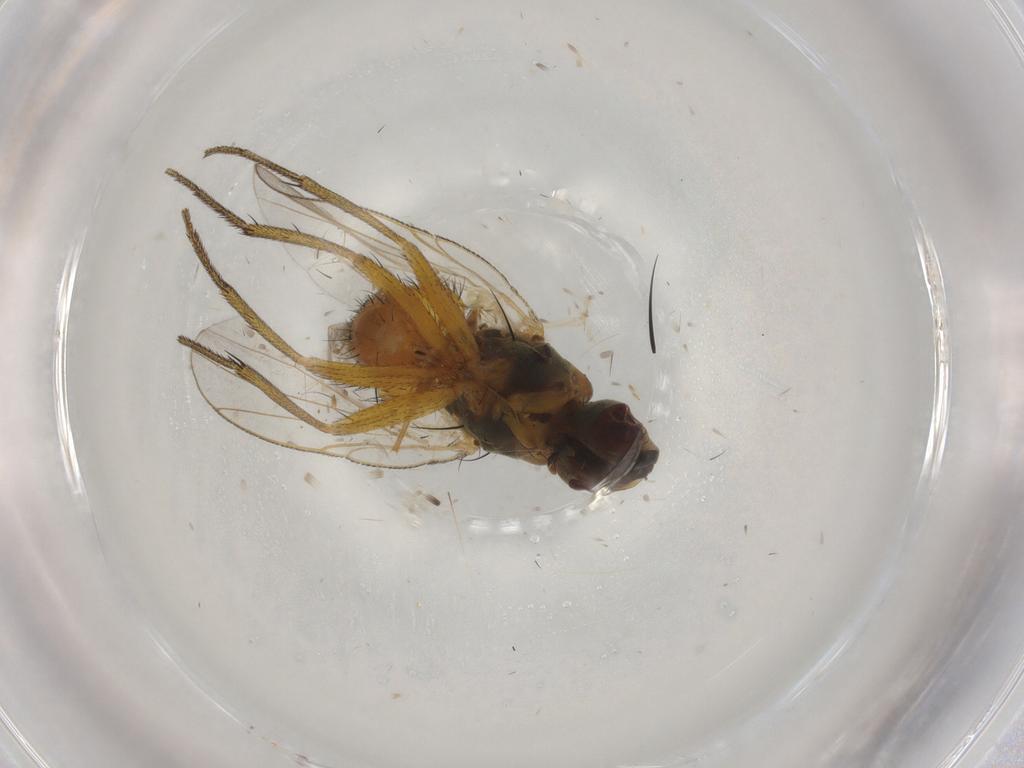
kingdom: Animalia
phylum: Arthropoda
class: Insecta
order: Diptera
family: Muscidae
